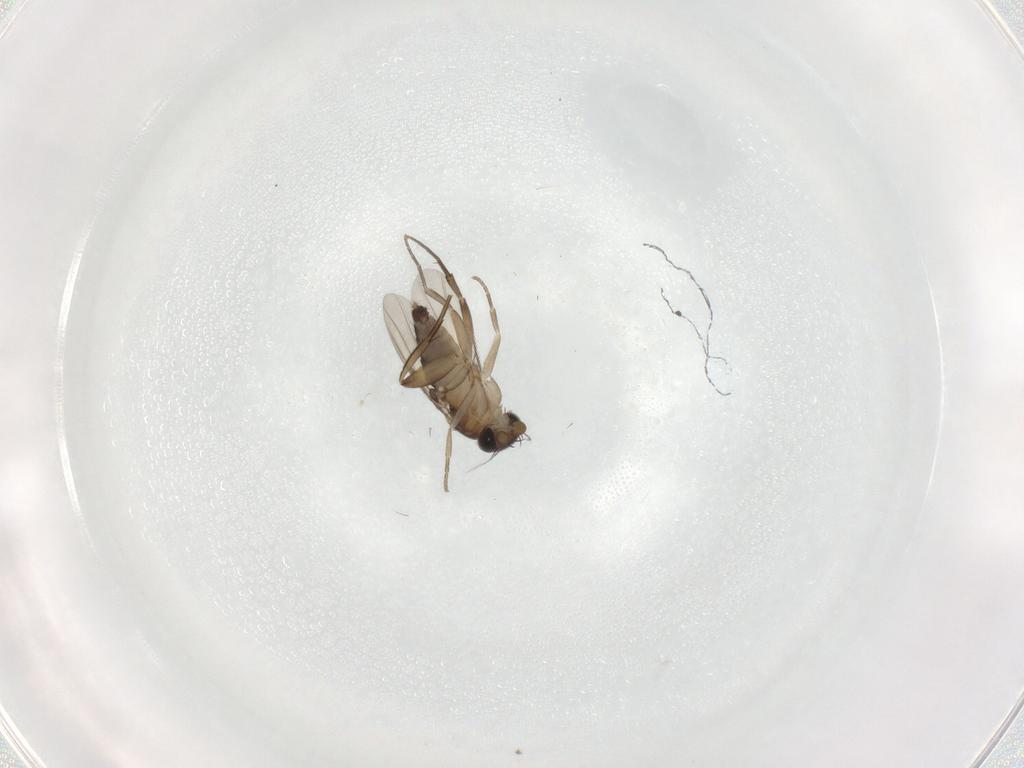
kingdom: Animalia
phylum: Arthropoda
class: Insecta
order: Diptera
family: Phoridae
